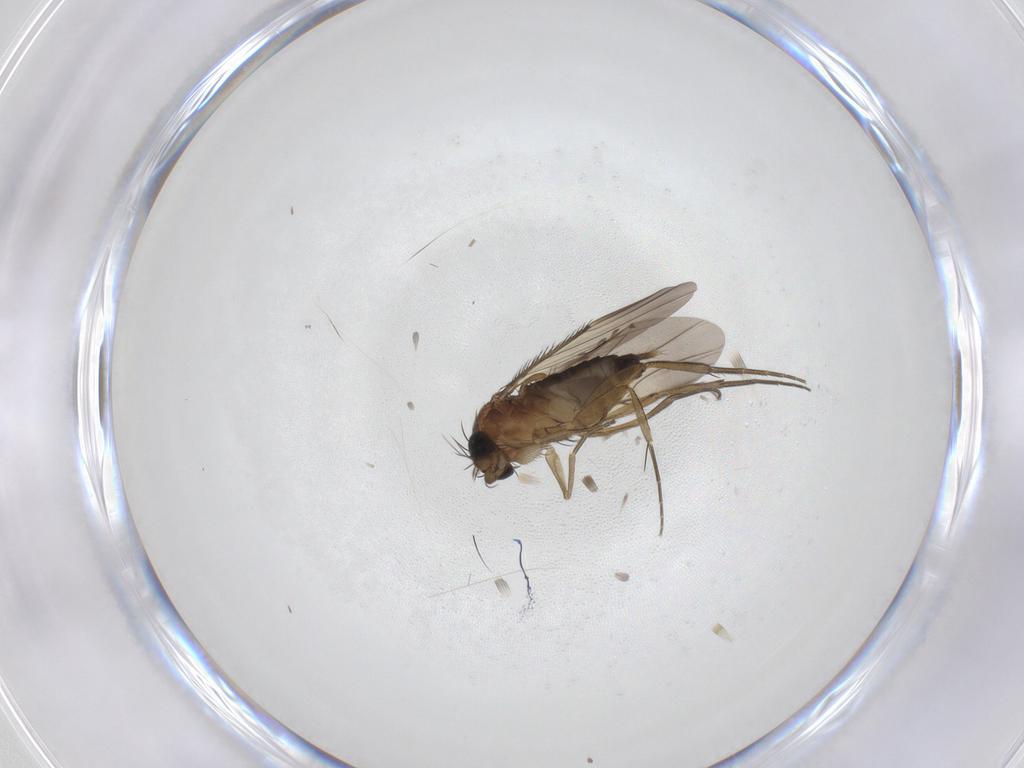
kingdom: Animalia
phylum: Arthropoda
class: Insecta
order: Diptera
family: Phoridae
